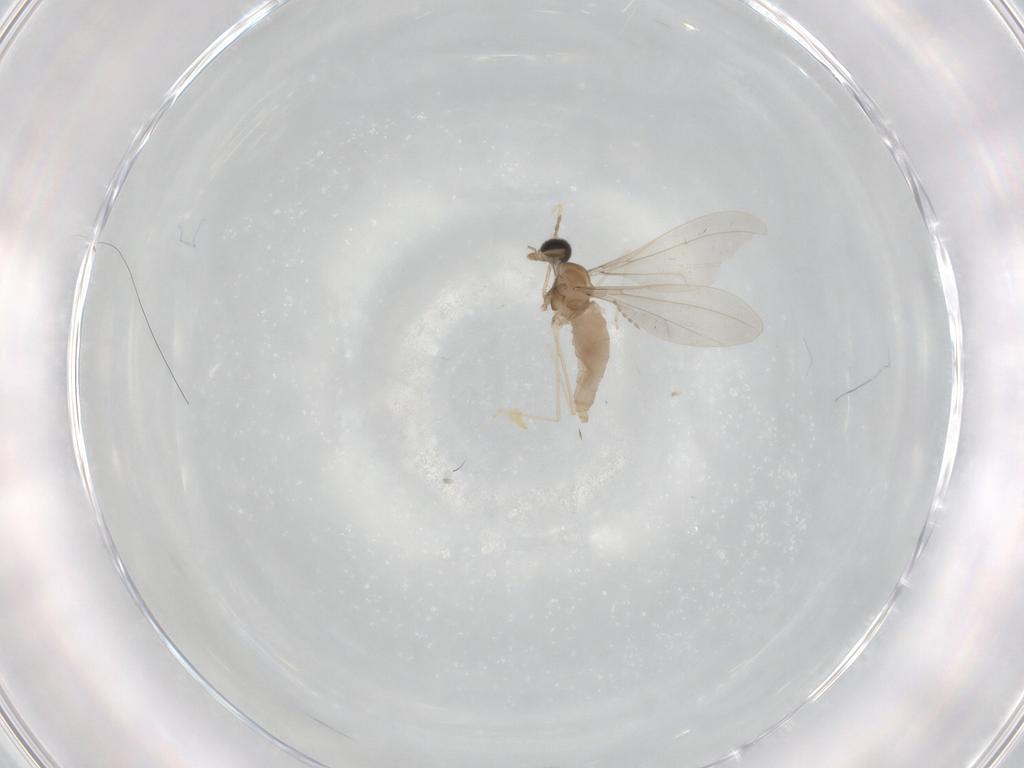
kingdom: Animalia
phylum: Arthropoda
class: Insecta
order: Diptera
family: Cecidomyiidae
